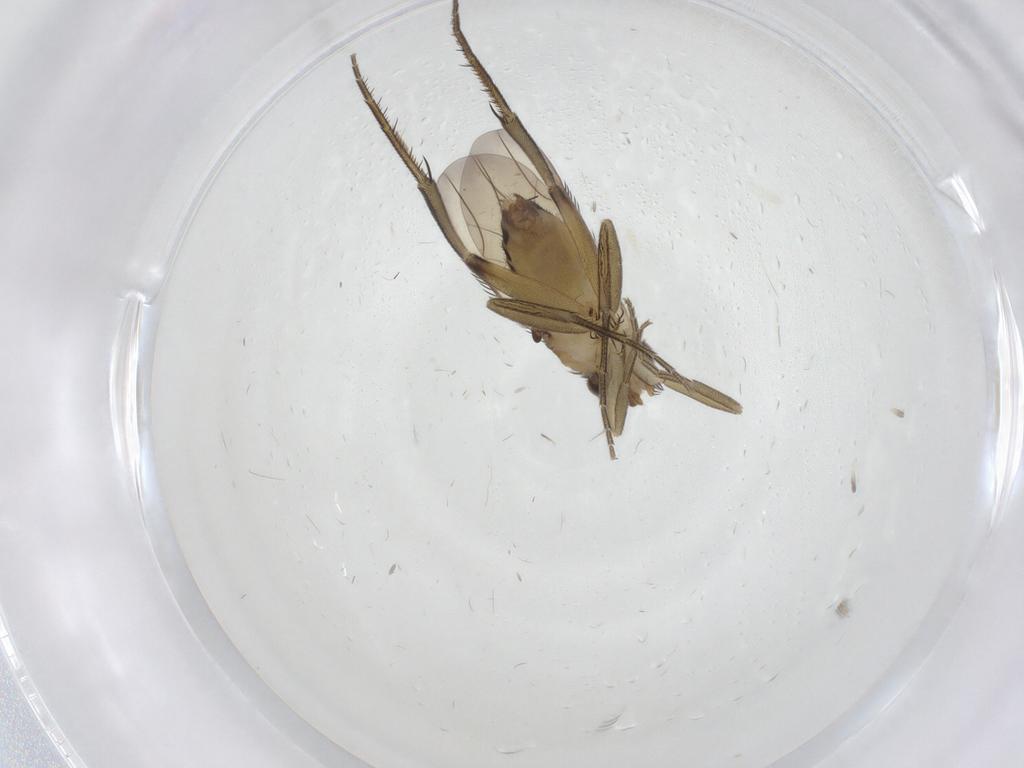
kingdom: Animalia
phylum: Arthropoda
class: Insecta
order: Diptera
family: Phoridae
